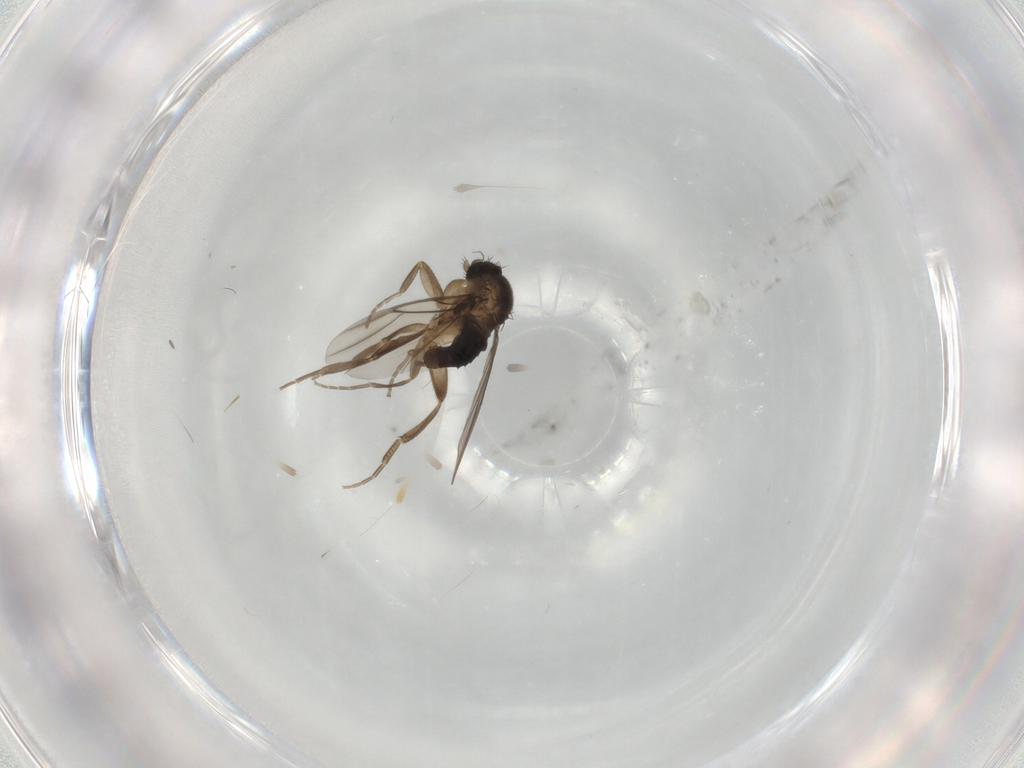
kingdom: Animalia
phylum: Arthropoda
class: Insecta
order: Diptera
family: Phoridae
